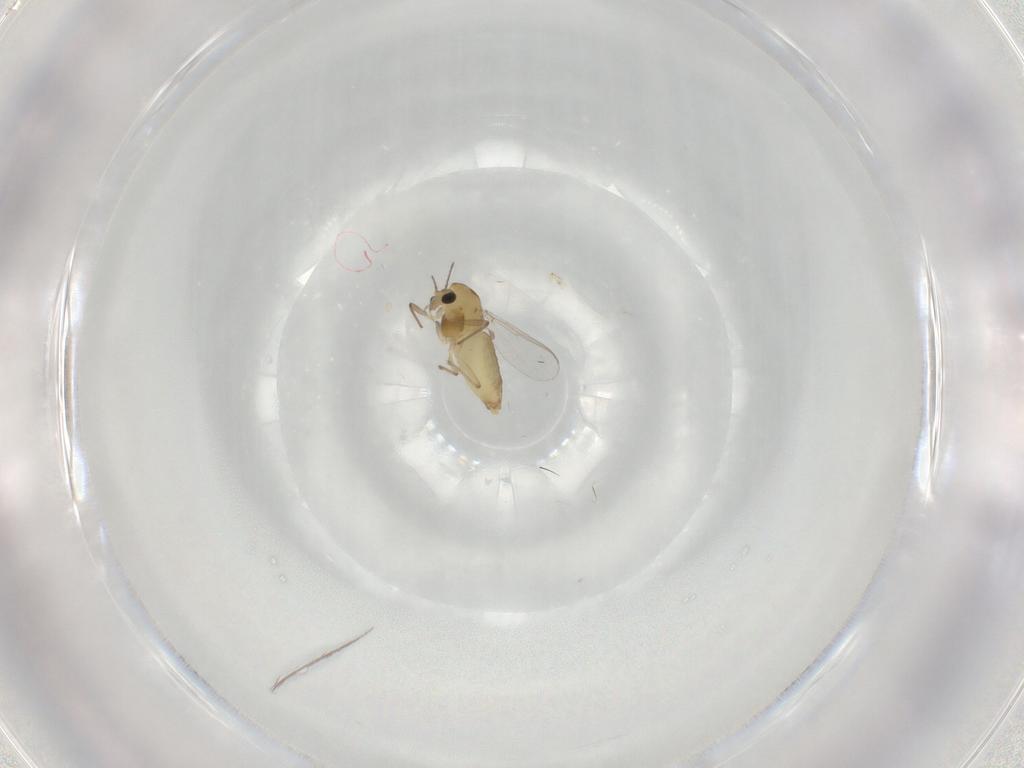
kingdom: Animalia
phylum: Arthropoda
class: Insecta
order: Diptera
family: Chironomidae
